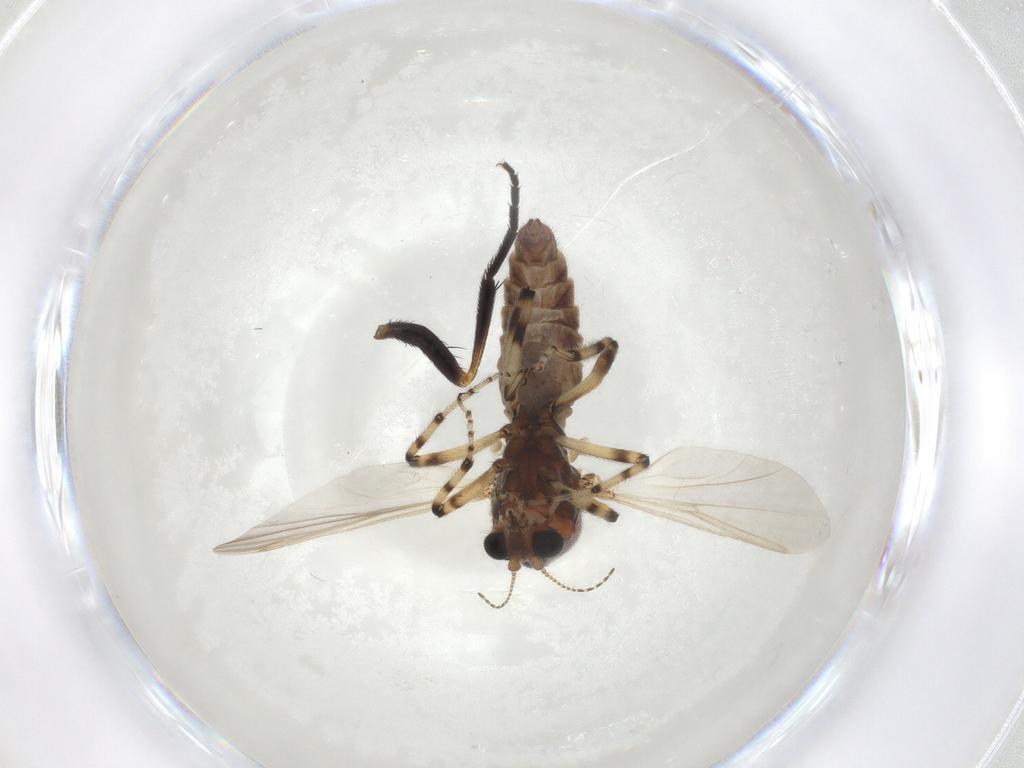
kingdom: Animalia
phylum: Arthropoda
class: Insecta
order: Diptera
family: Ceratopogonidae
